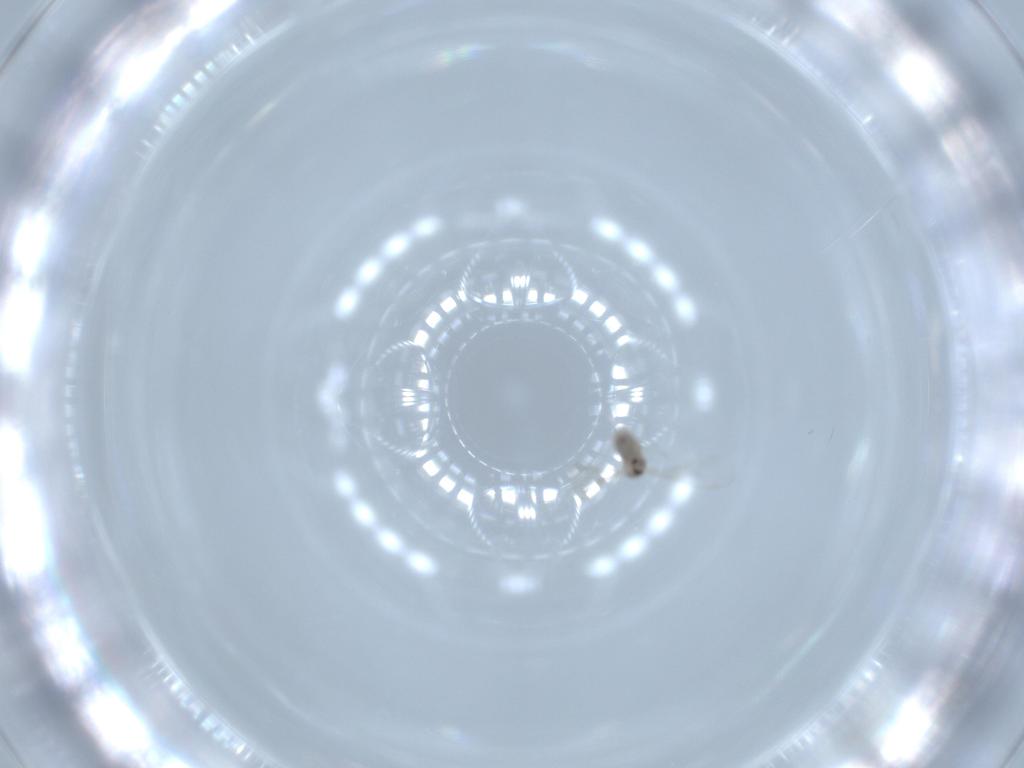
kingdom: Animalia
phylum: Arthropoda
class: Insecta
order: Diptera
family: Cecidomyiidae
